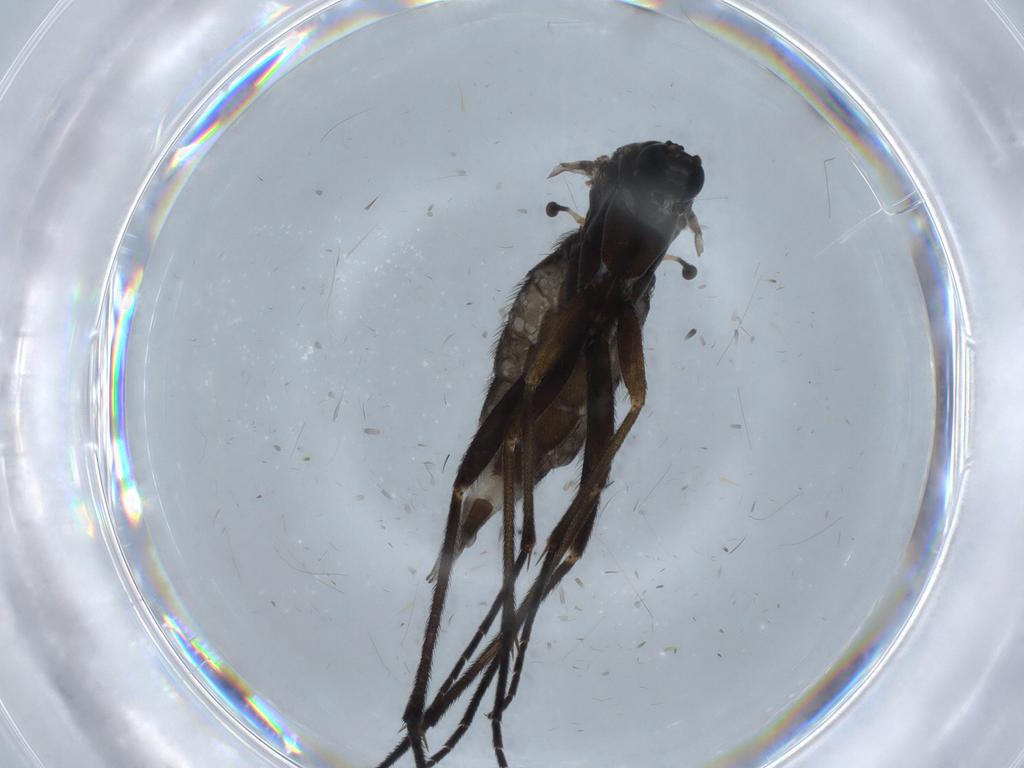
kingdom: Animalia
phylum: Arthropoda
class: Insecta
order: Diptera
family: Sciaridae
